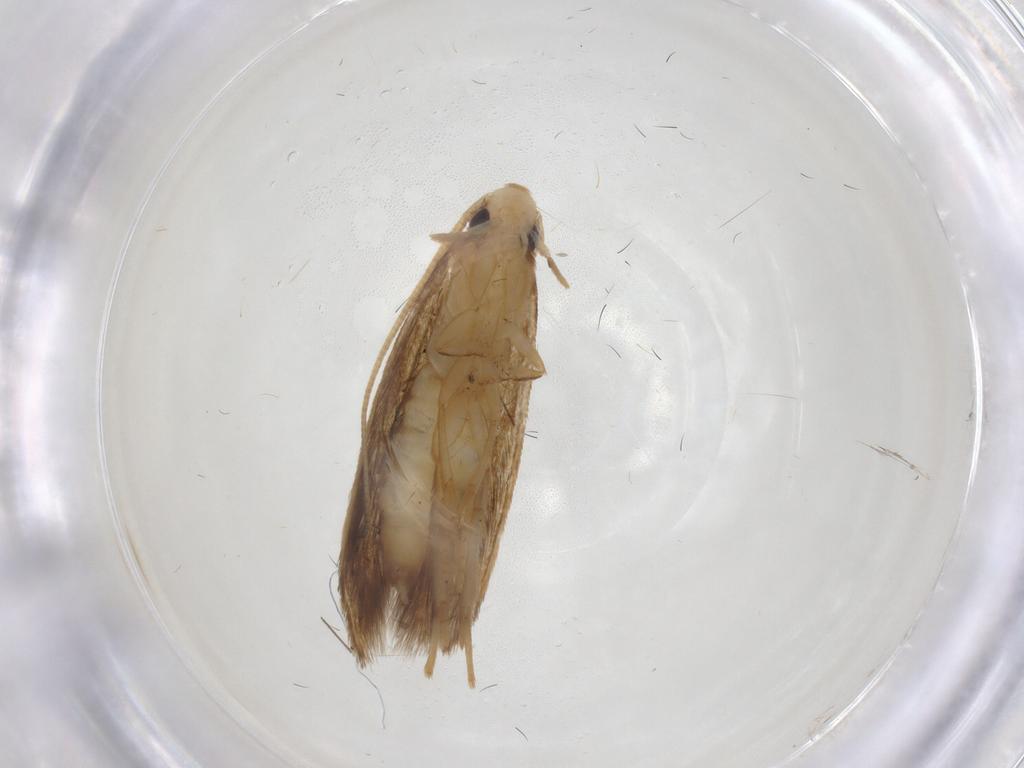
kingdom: Animalia
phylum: Arthropoda
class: Insecta
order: Lepidoptera
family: Tineidae
